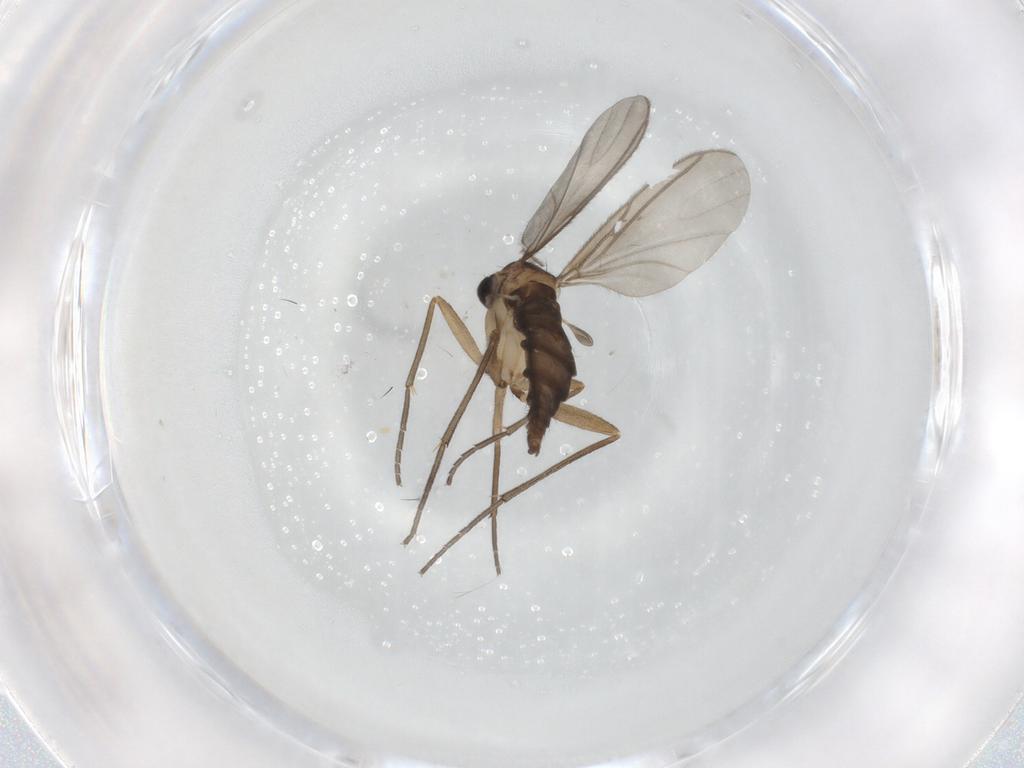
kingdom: Animalia
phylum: Arthropoda
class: Insecta
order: Diptera
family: Sciaridae
